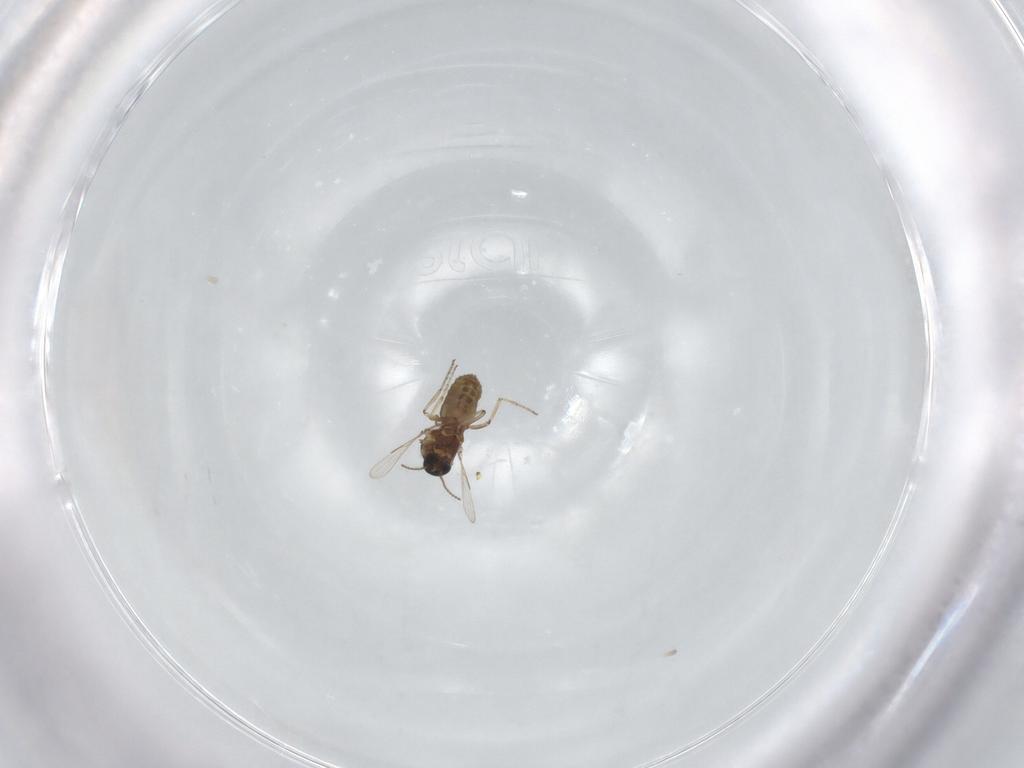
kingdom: Animalia
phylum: Arthropoda
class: Insecta
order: Diptera
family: Ceratopogonidae
